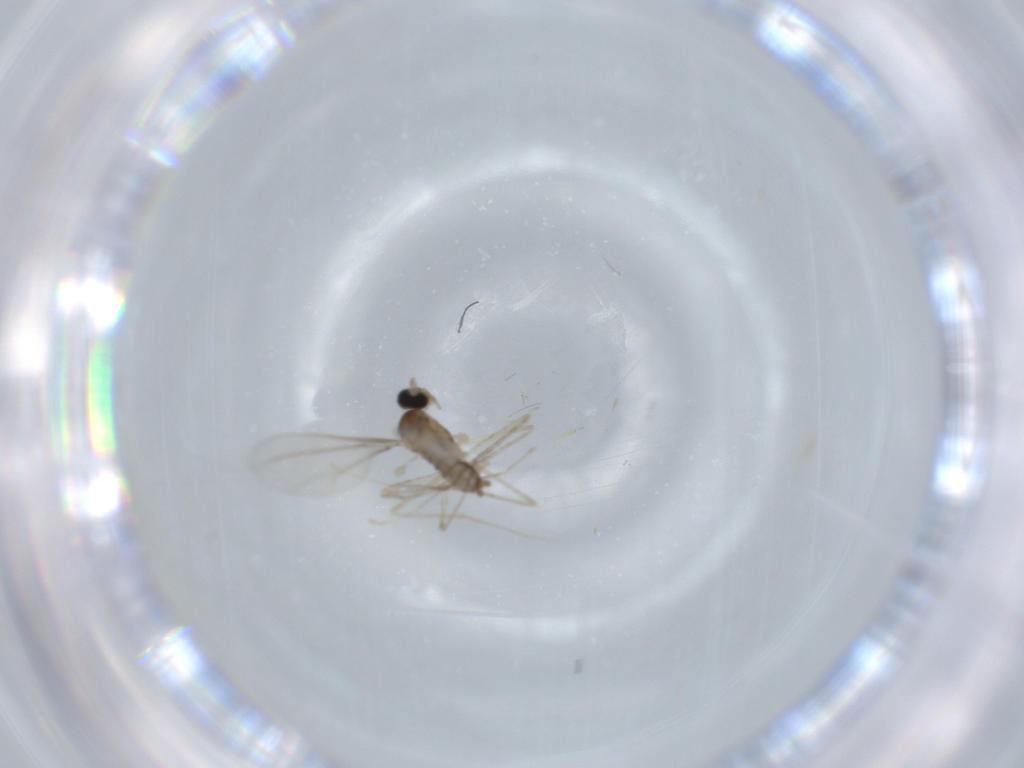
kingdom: Animalia
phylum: Arthropoda
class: Insecta
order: Diptera
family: Cecidomyiidae
